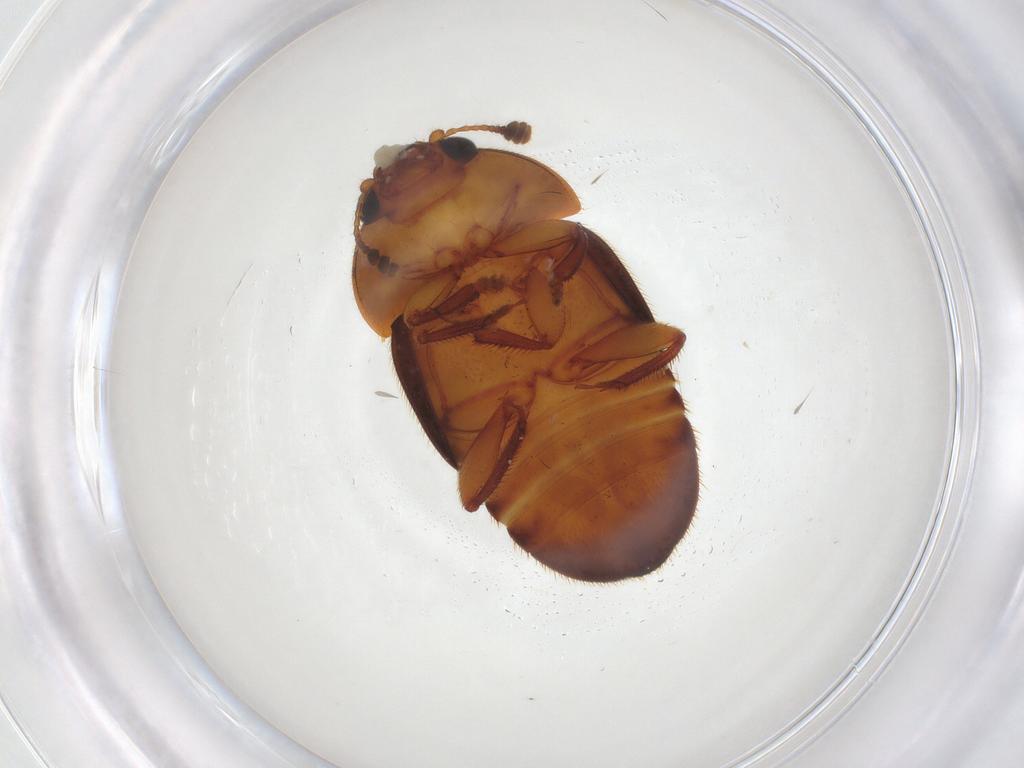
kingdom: Animalia
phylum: Arthropoda
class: Insecta
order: Coleoptera
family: Nitidulidae
